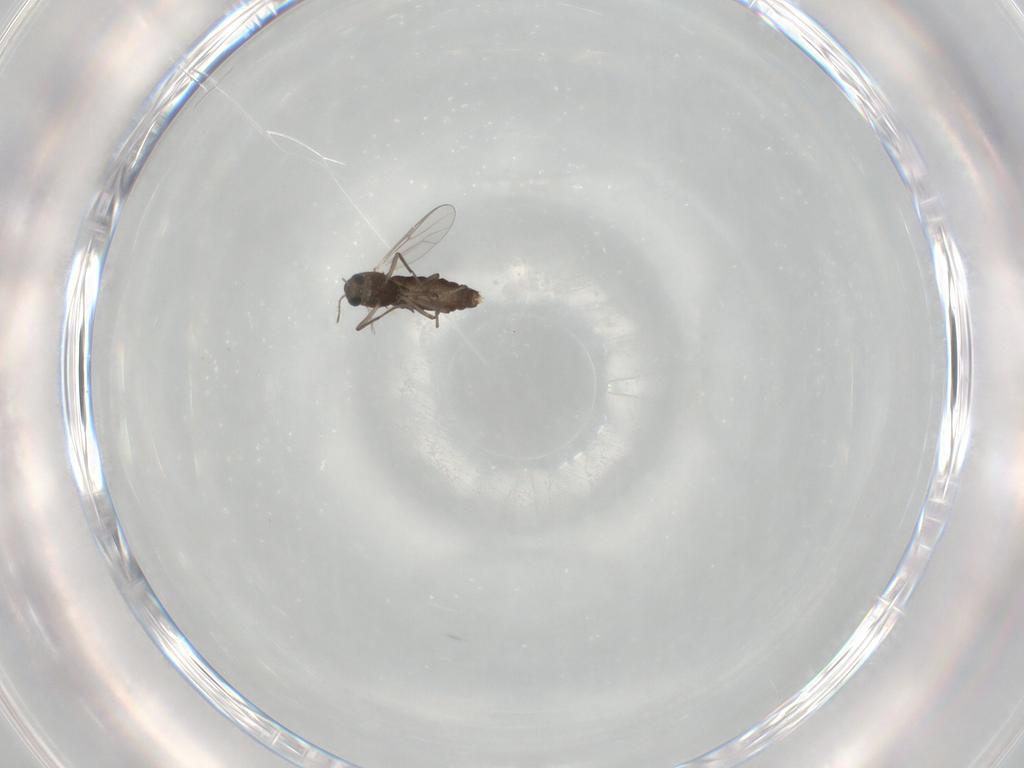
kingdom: Animalia
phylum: Arthropoda
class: Insecta
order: Diptera
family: Chironomidae
